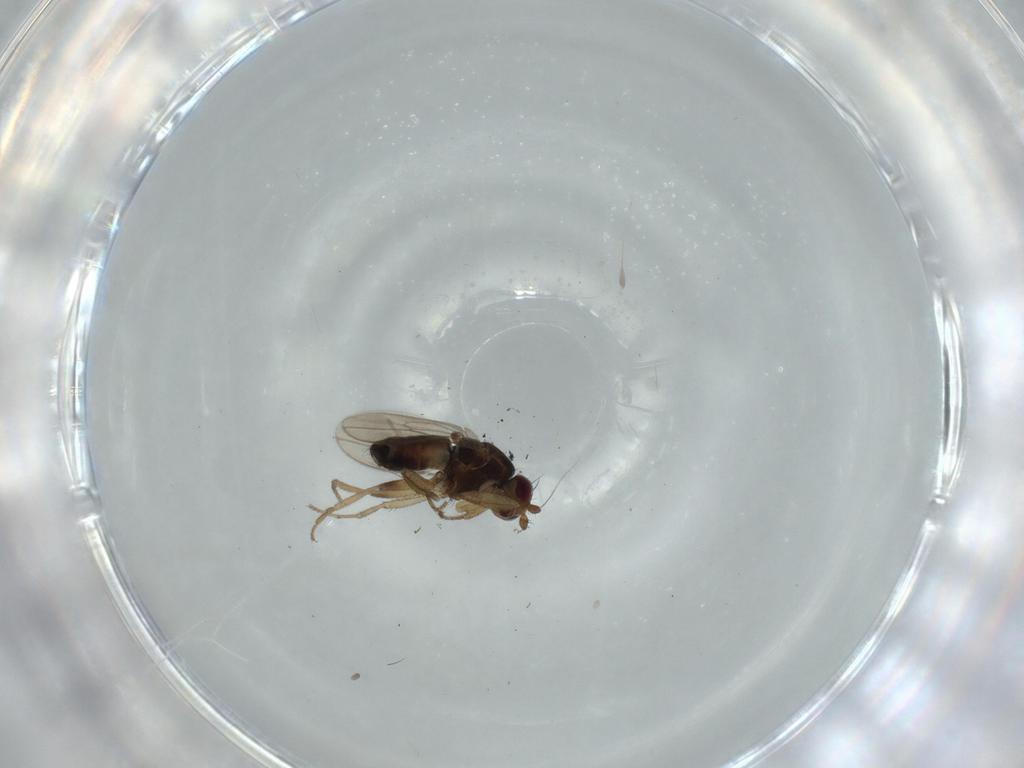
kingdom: Animalia
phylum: Arthropoda
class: Insecta
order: Diptera
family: Sphaeroceridae
